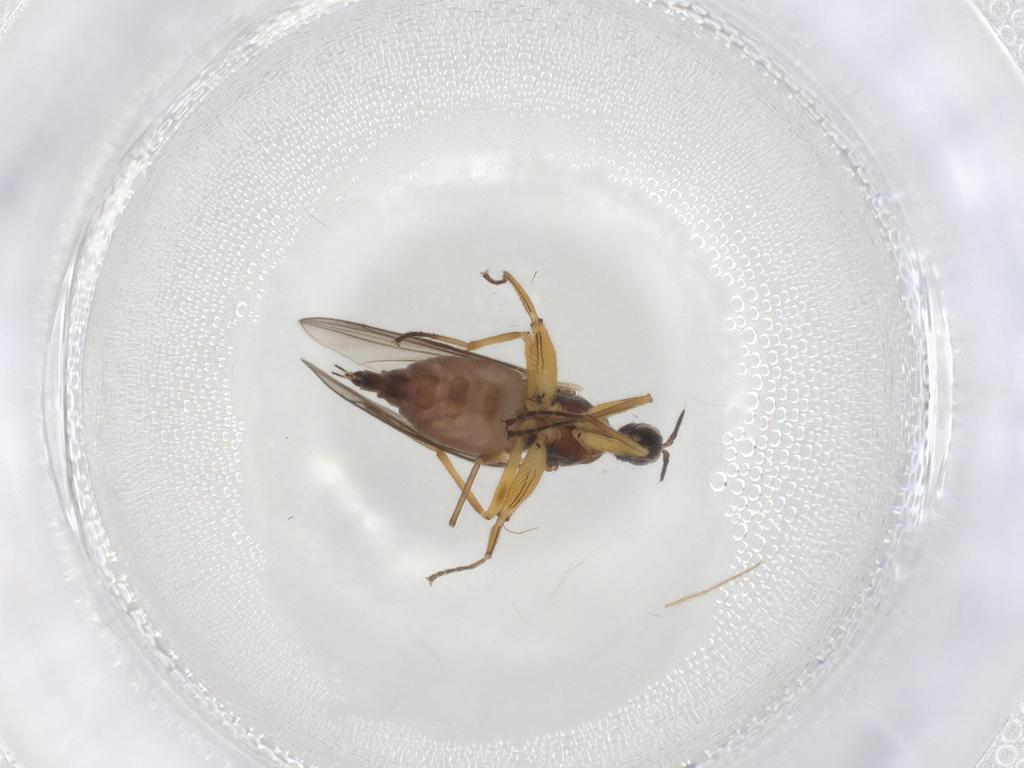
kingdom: Animalia
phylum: Arthropoda
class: Insecta
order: Diptera
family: Hybotidae
